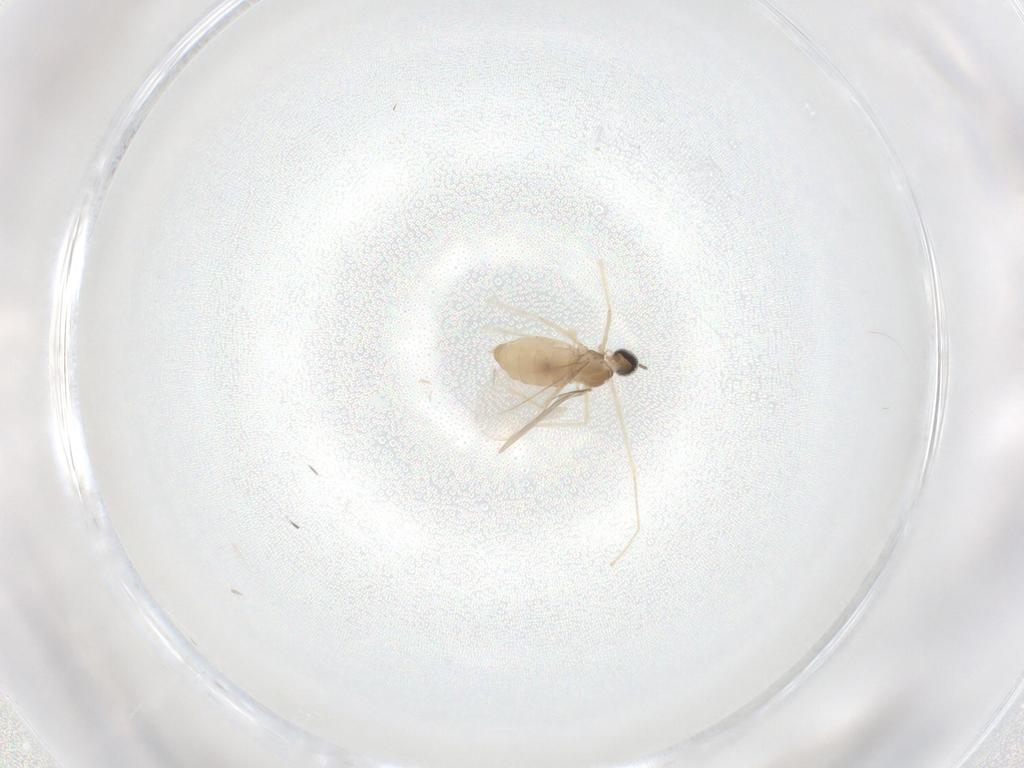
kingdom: Animalia
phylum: Arthropoda
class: Insecta
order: Diptera
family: Cecidomyiidae
